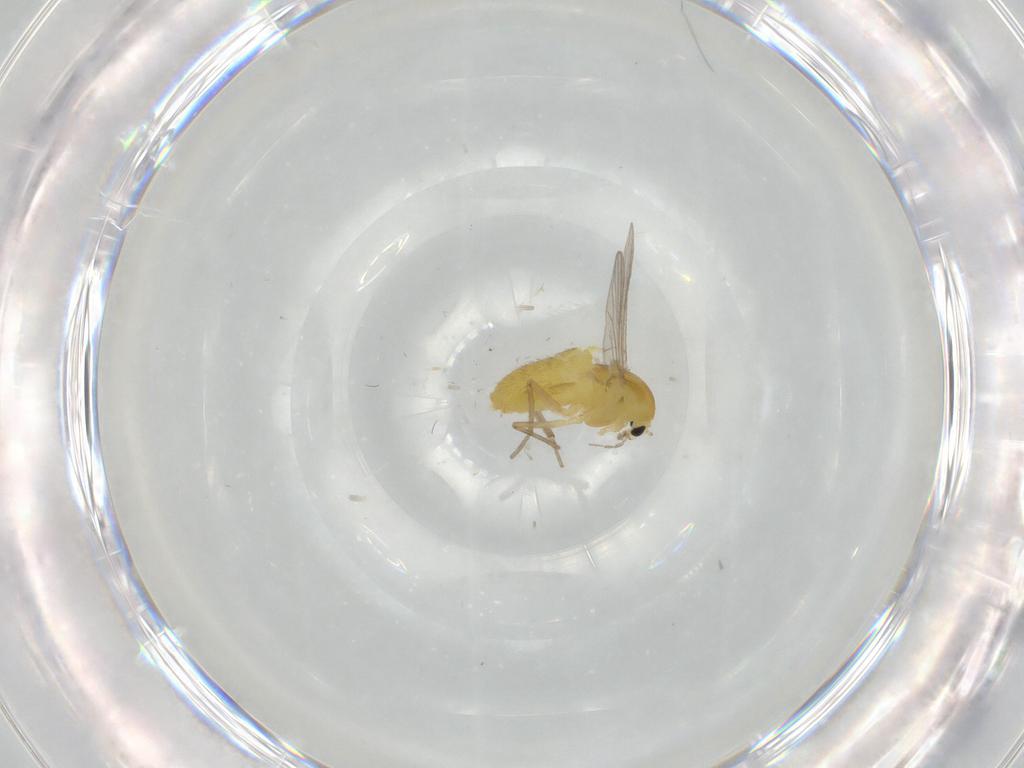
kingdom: Animalia
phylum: Arthropoda
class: Insecta
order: Diptera
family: Chironomidae
